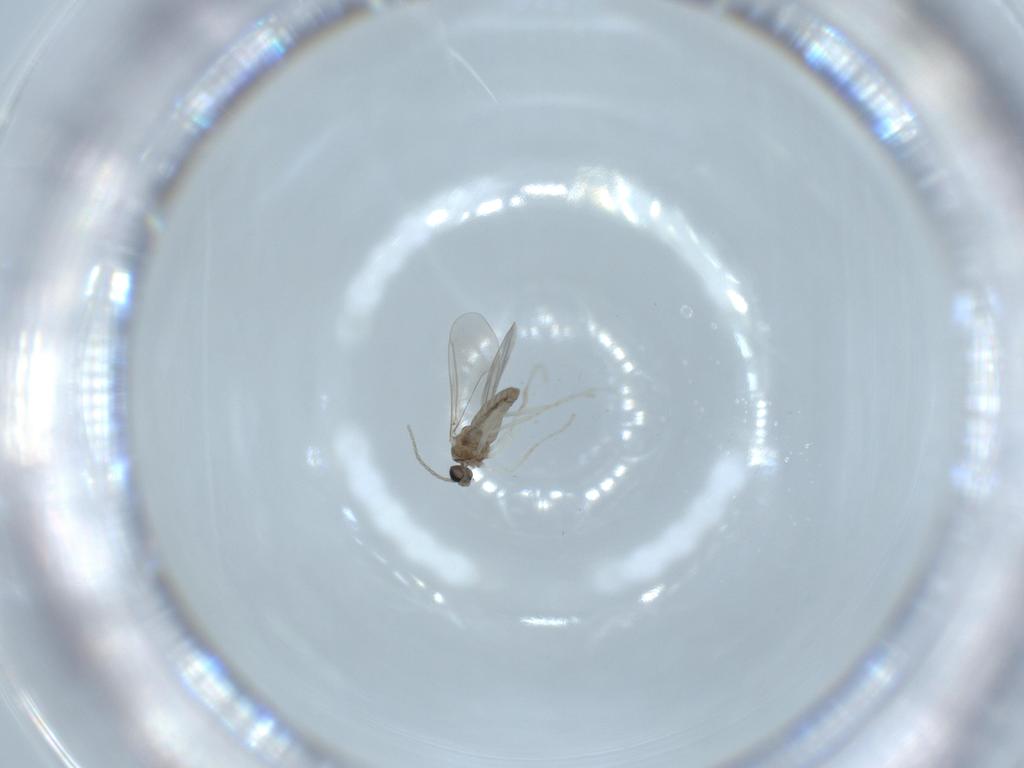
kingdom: Animalia
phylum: Arthropoda
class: Insecta
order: Diptera
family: Cecidomyiidae
